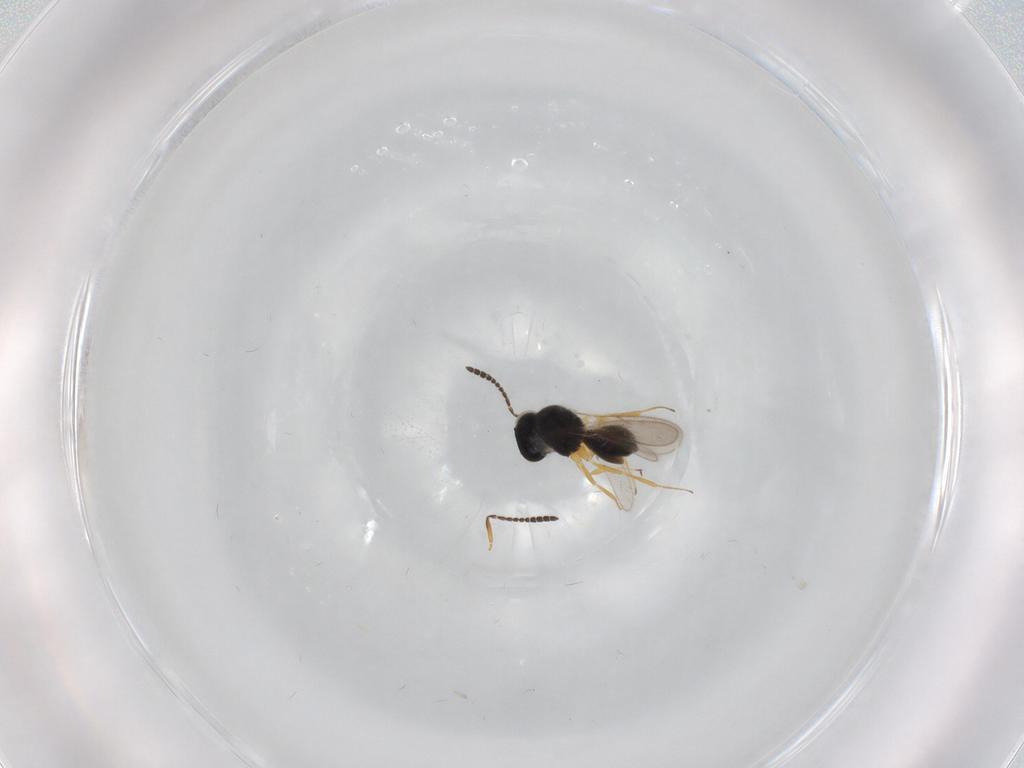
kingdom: Animalia
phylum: Arthropoda
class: Insecta
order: Hymenoptera
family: Scelionidae
